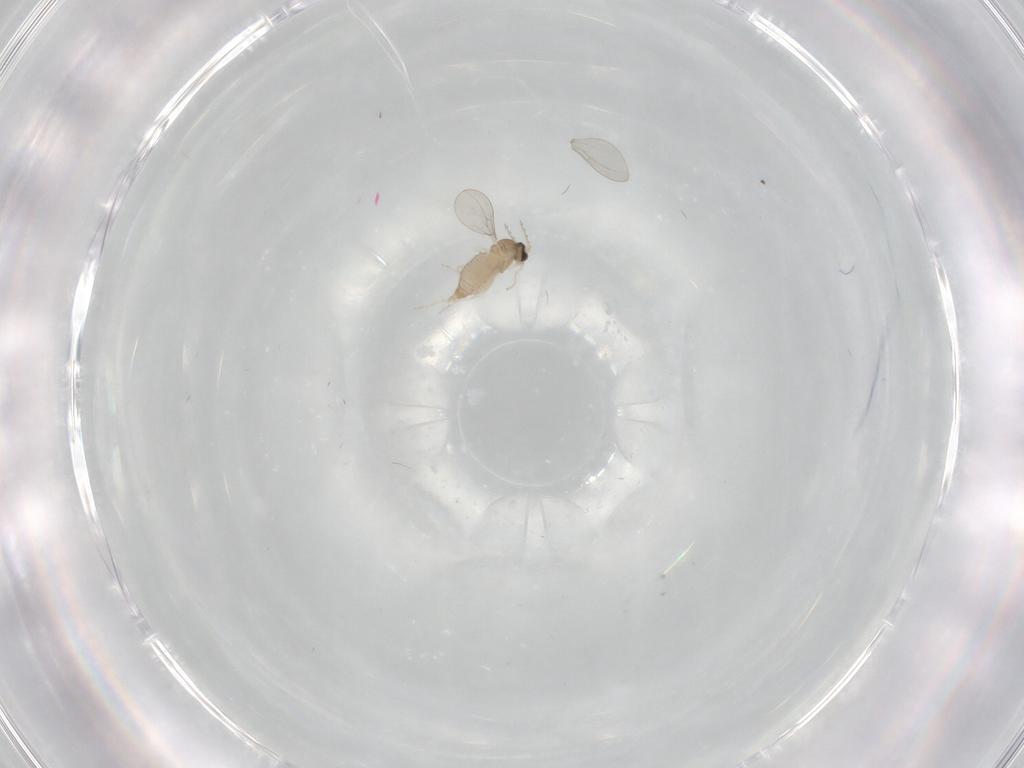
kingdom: Animalia
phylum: Arthropoda
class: Insecta
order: Diptera
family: Cecidomyiidae
